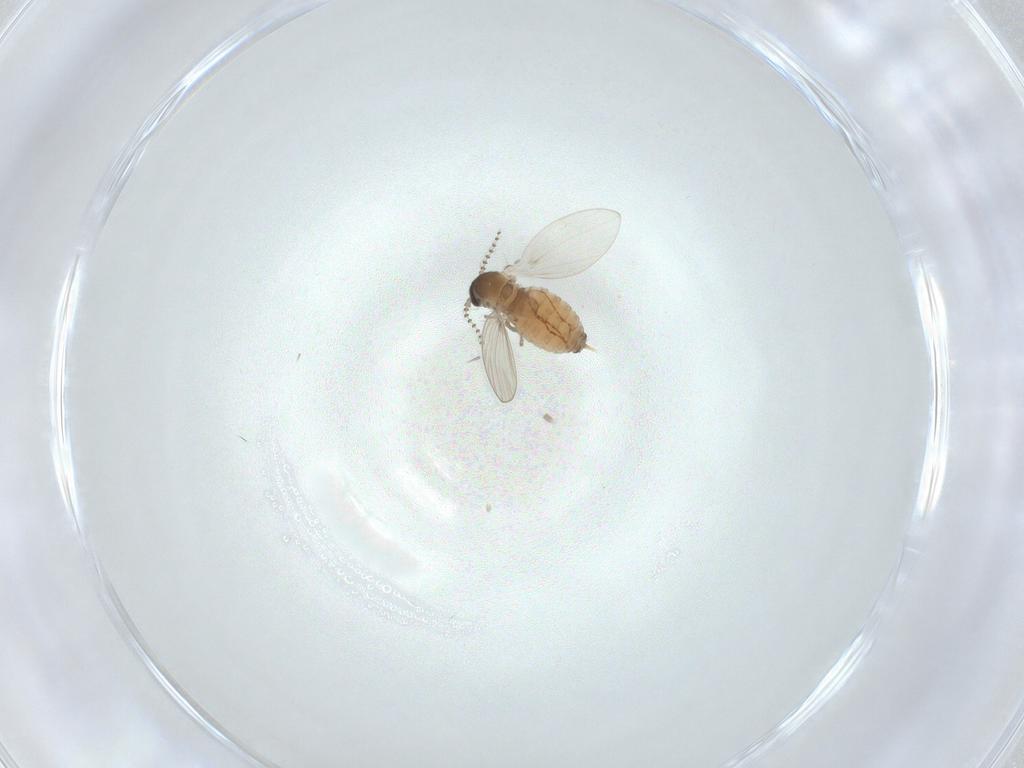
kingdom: Animalia
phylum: Arthropoda
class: Insecta
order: Diptera
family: Psychodidae
